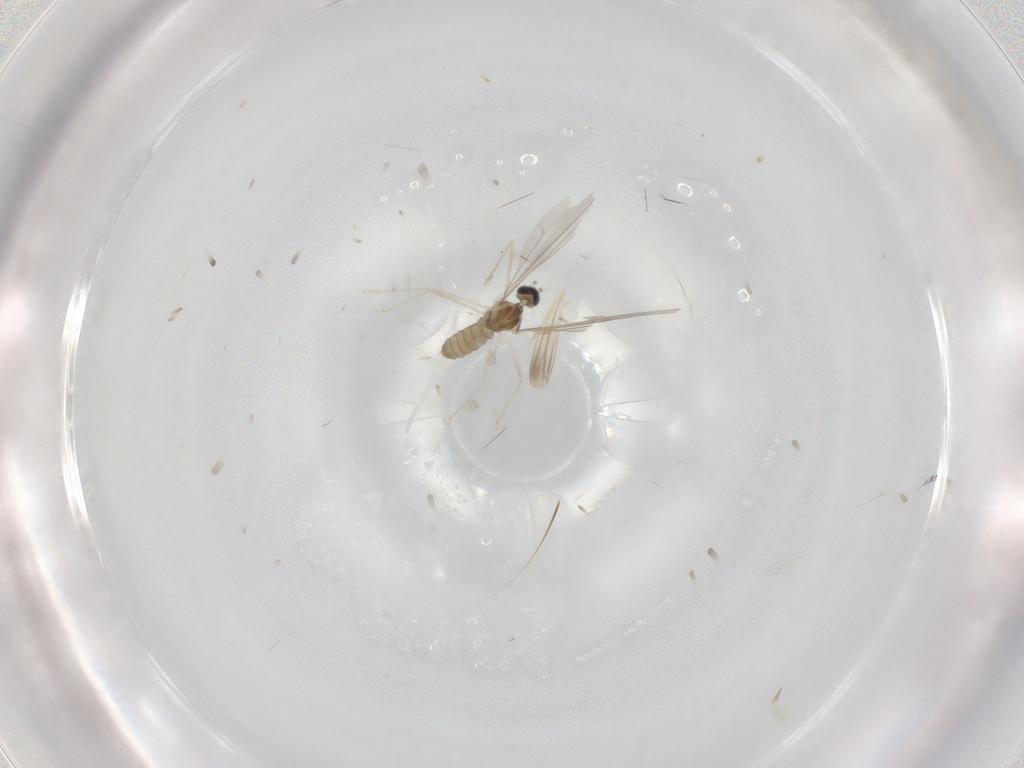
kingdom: Animalia
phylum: Arthropoda
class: Insecta
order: Diptera
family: Cecidomyiidae
